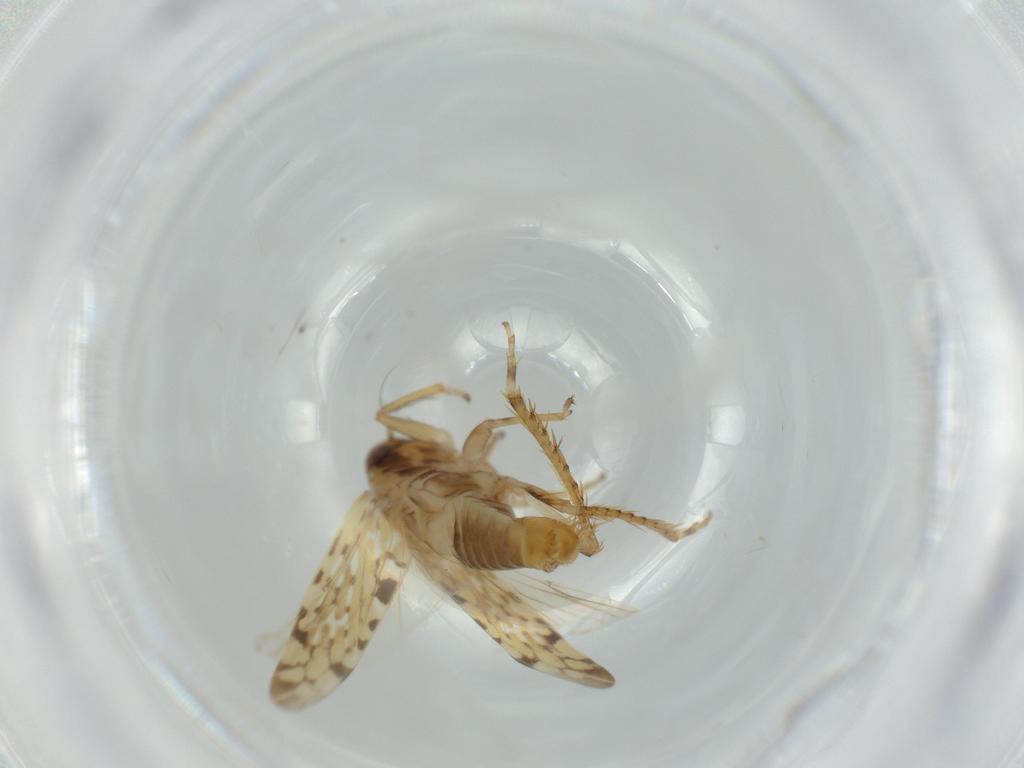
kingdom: Animalia
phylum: Arthropoda
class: Insecta
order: Hemiptera
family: Cicadellidae
